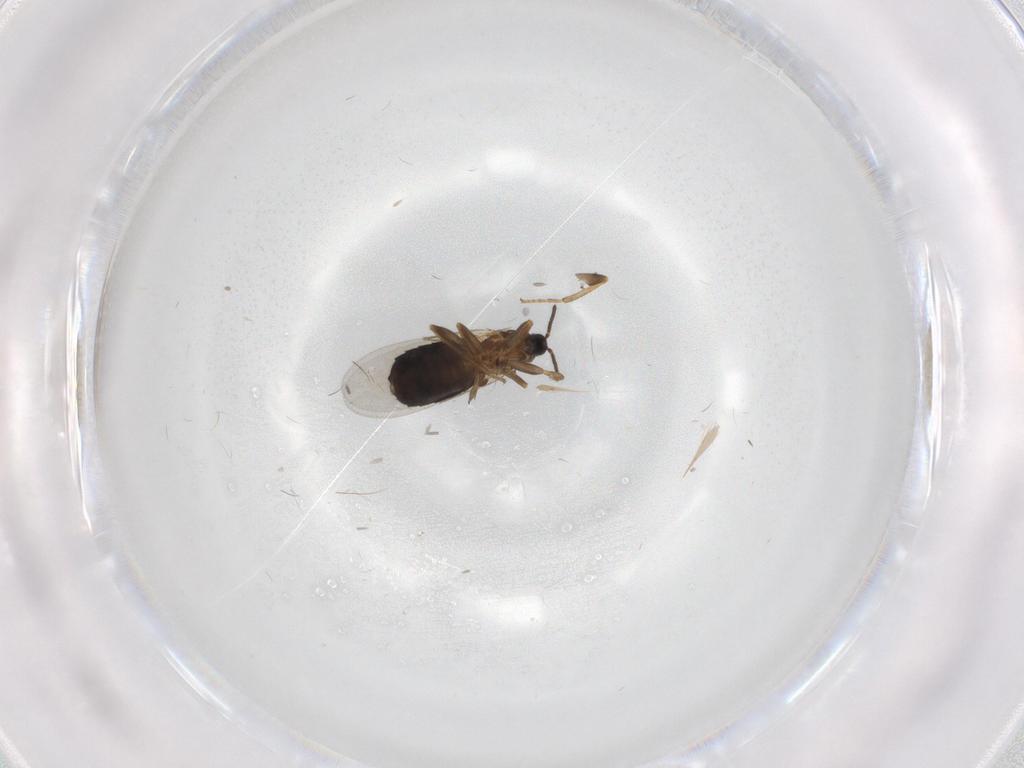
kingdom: Animalia
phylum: Arthropoda
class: Insecta
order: Diptera
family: Scatopsidae
